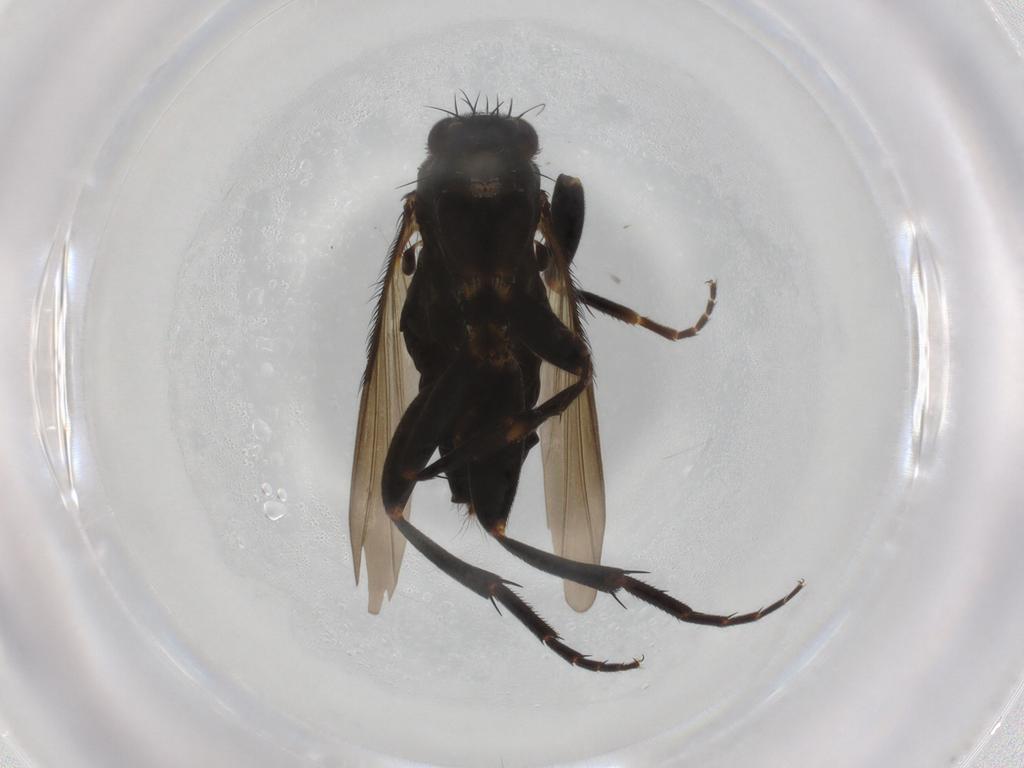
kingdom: Animalia
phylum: Arthropoda
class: Insecta
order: Diptera
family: Phoridae
